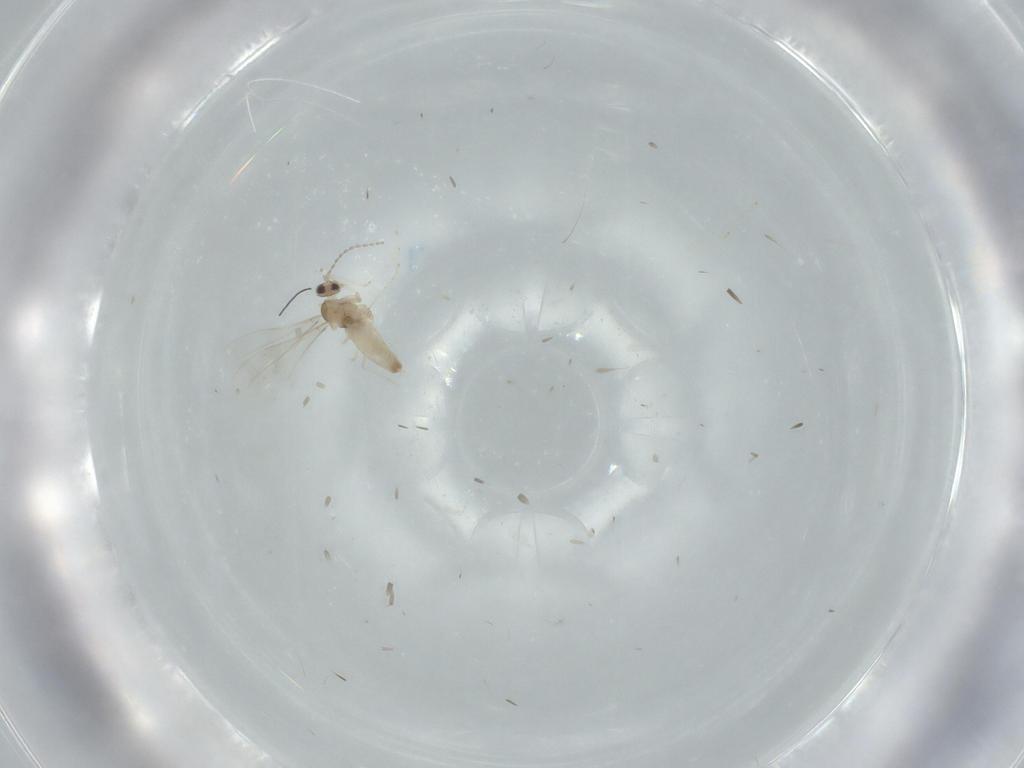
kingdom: Animalia
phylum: Arthropoda
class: Insecta
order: Diptera
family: Cecidomyiidae
